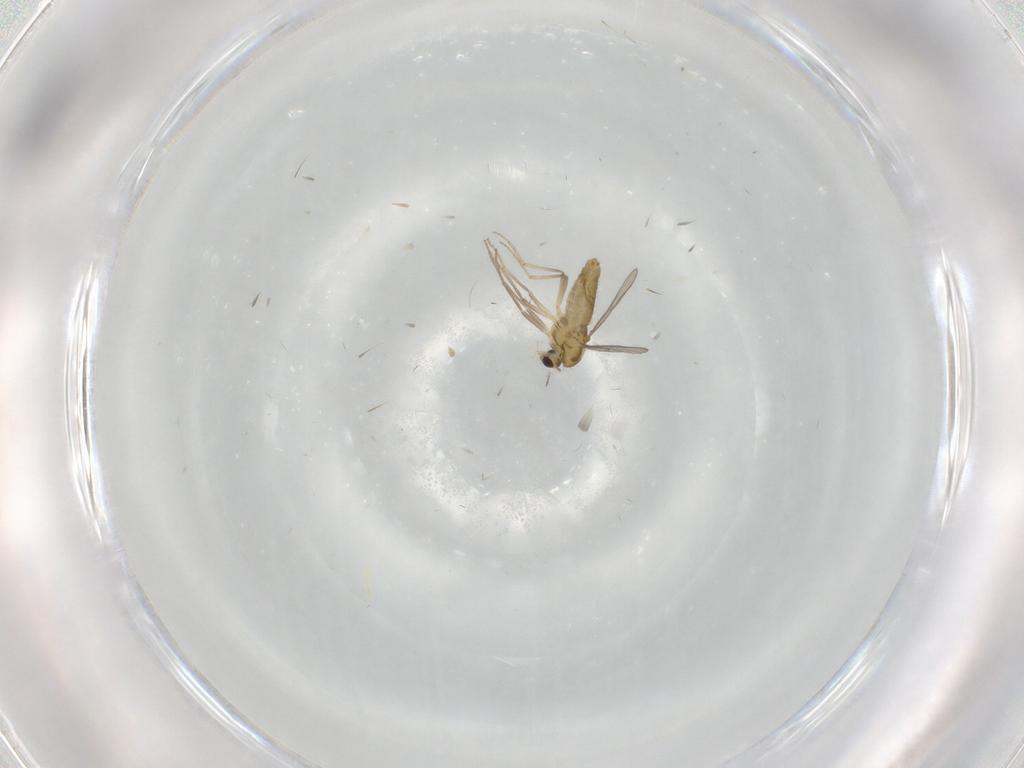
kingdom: Animalia
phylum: Arthropoda
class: Insecta
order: Diptera
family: Chironomidae
